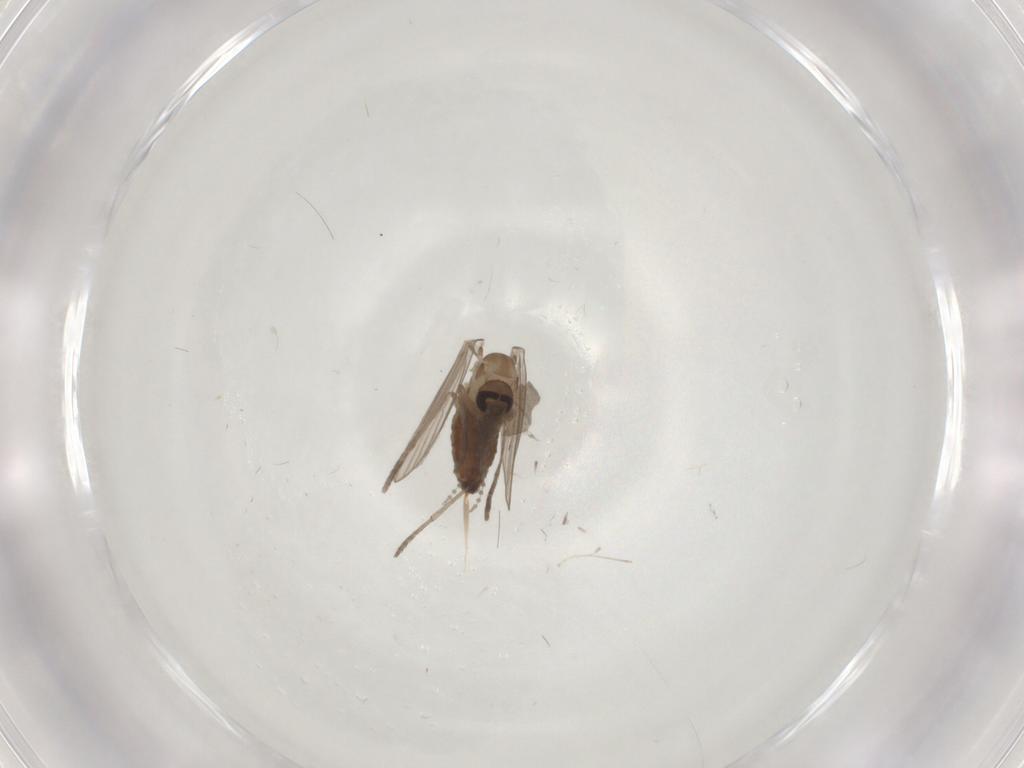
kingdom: Animalia
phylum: Arthropoda
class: Insecta
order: Diptera
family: Psychodidae
